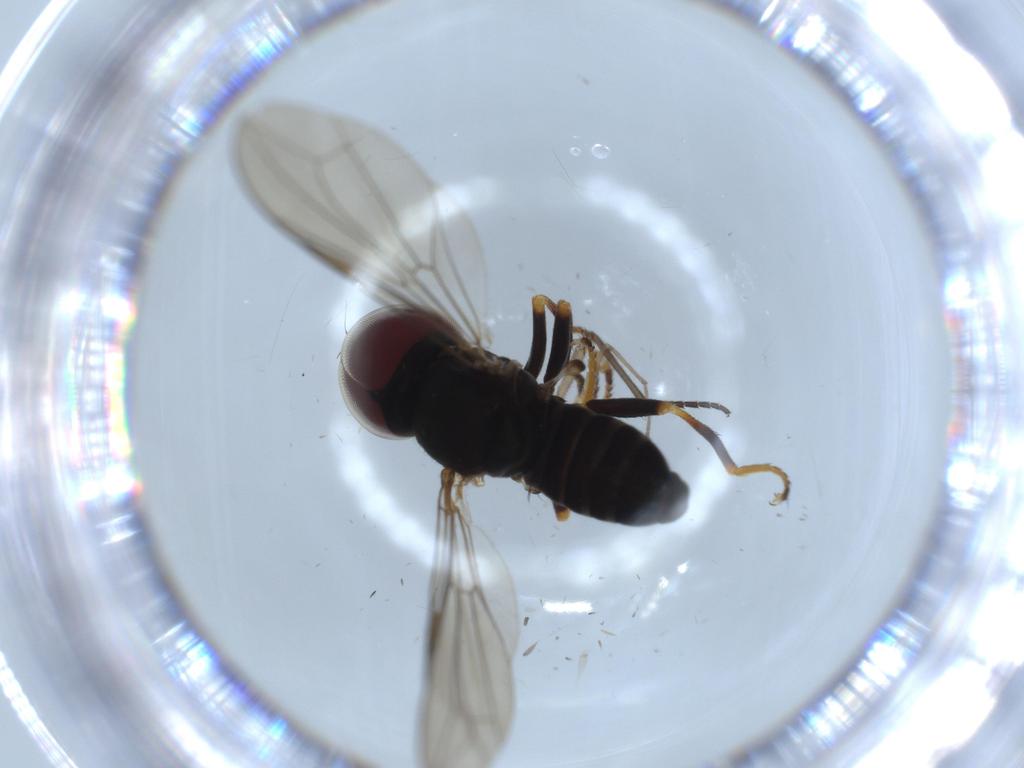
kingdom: Animalia
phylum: Arthropoda
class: Insecta
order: Diptera
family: Pipunculidae
